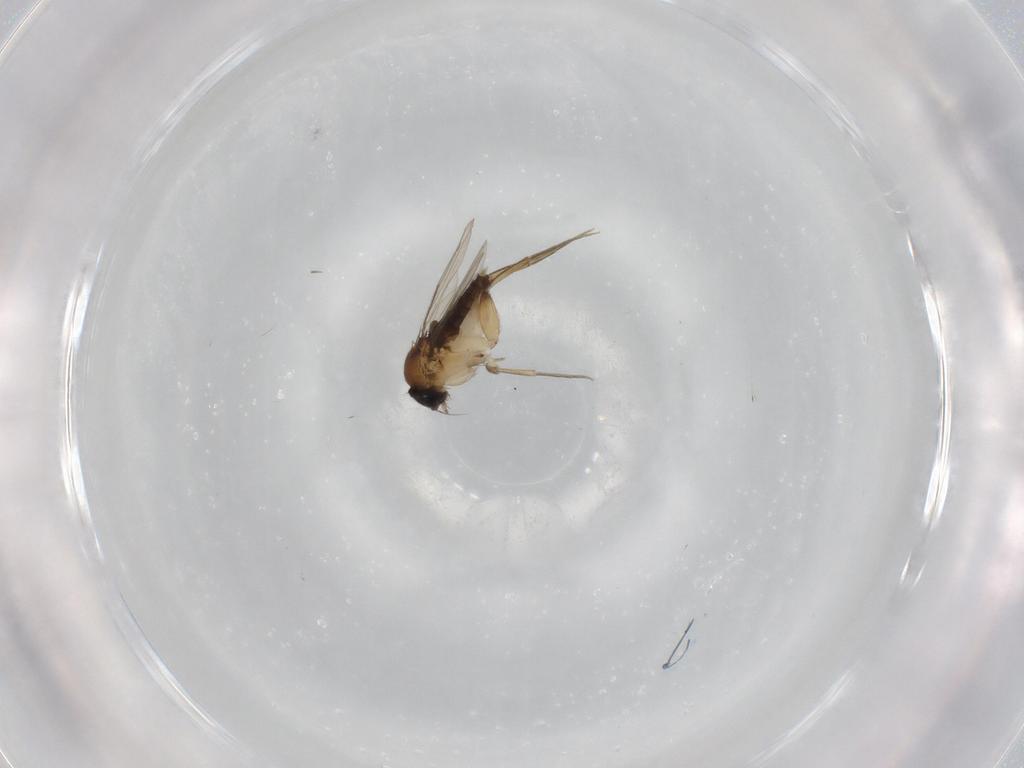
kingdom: Animalia
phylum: Arthropoda
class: Insecta
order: Diptera
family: Phoridae
